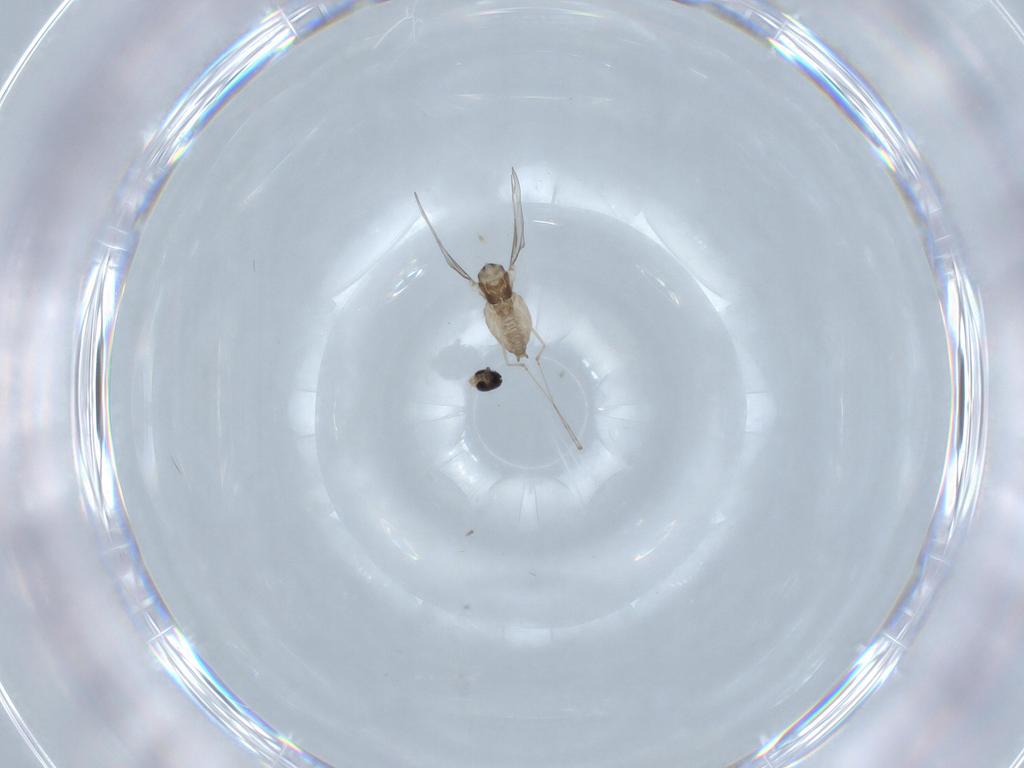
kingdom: Animalia
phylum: Arthropoda
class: Insecta
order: Diptera
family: Cecidomyiidae
